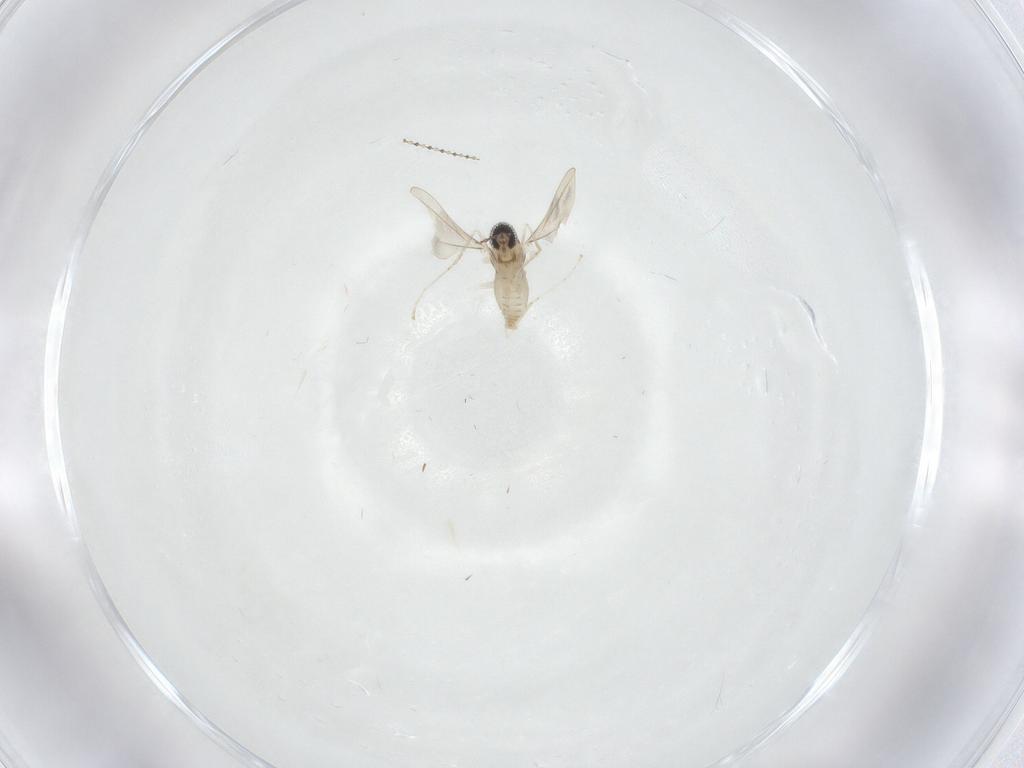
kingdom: Animalia
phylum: Arthropoda
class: Insecta
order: Diptera
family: Cecidomyiidae
